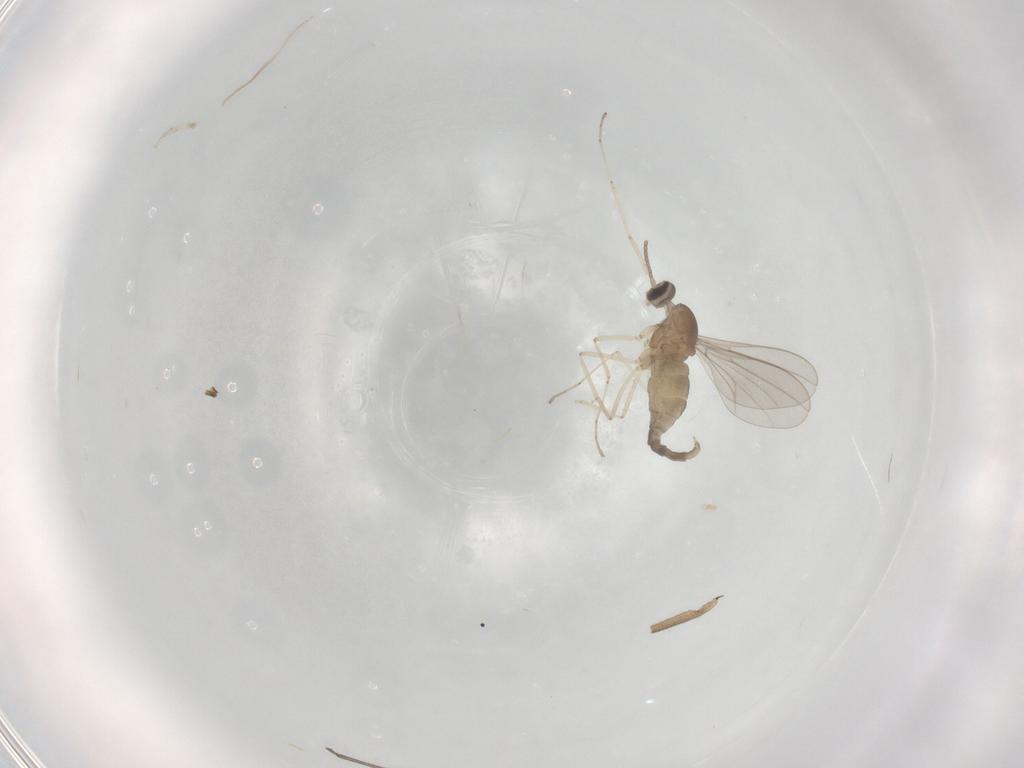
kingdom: Animalia
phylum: Arthropoda
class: Insecta
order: Diptera
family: Cecidomyiidae
